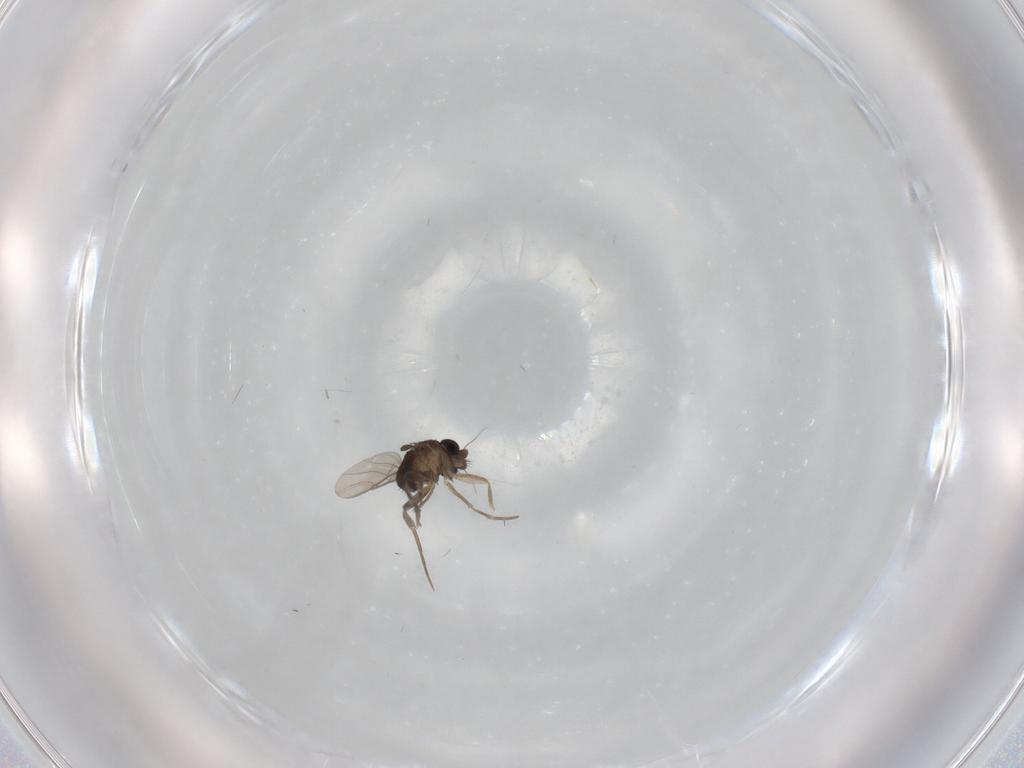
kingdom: Animalia
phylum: Arthropoda
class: Insecta
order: Diptera
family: Phoridae
